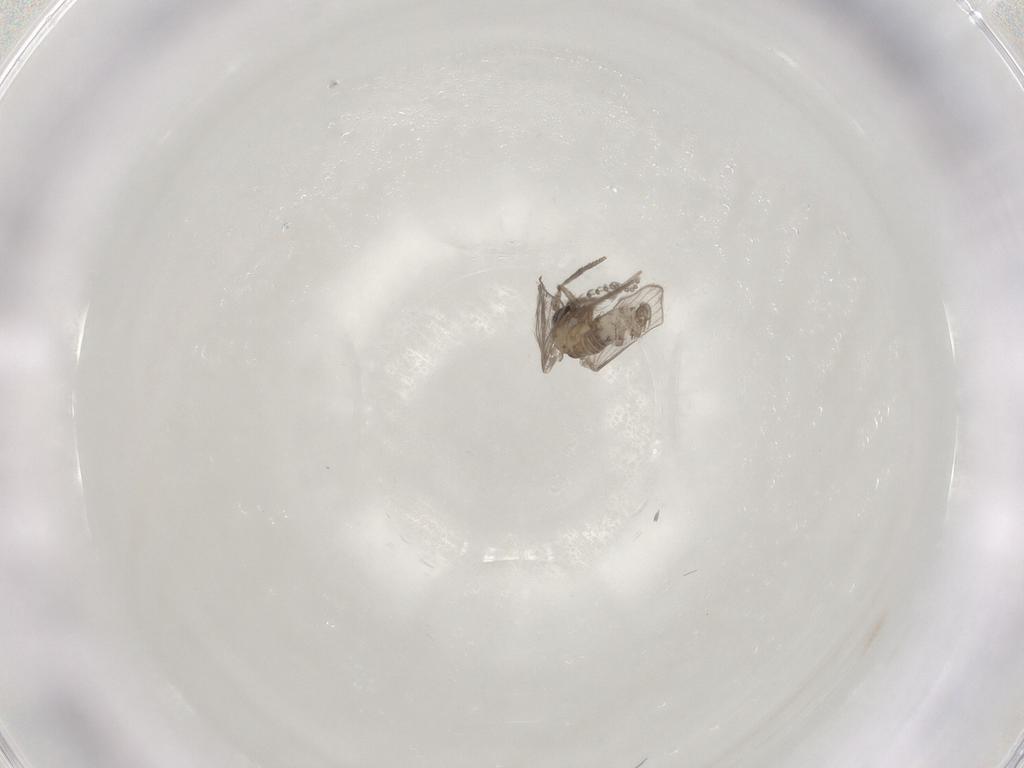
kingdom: Animalia
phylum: Arthropoda
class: Insecta
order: Diptera
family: Psychodidae
